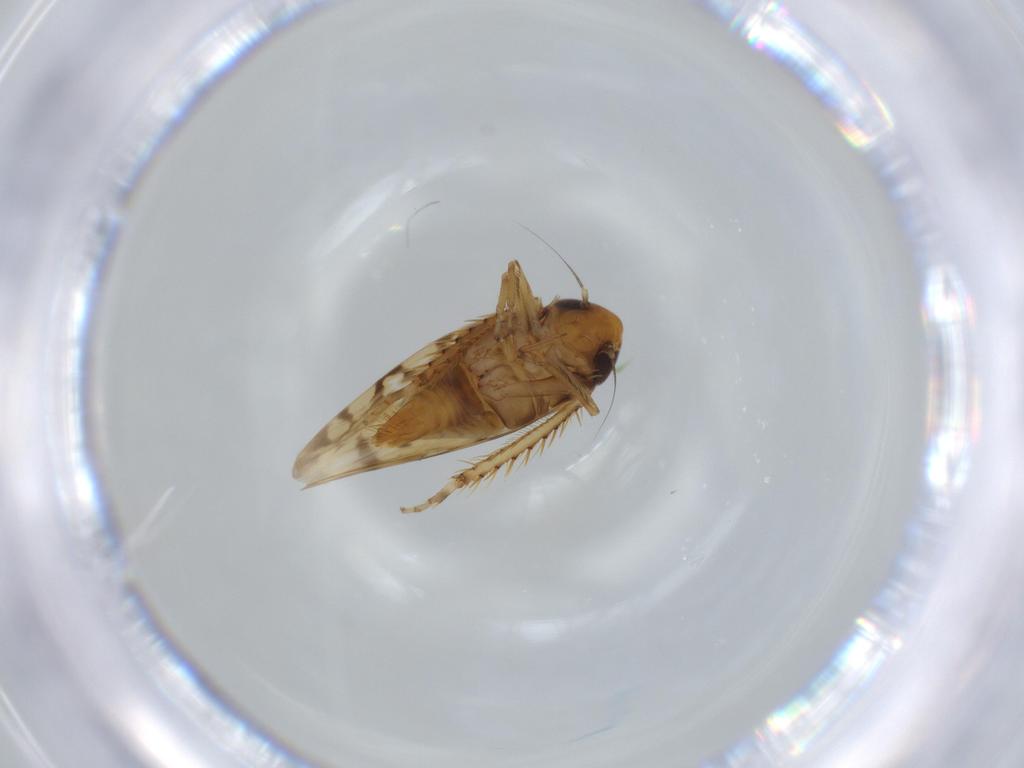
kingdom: Animalia
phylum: Arthropoda
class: Insecta
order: Hemiptera
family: Cicadellidae
